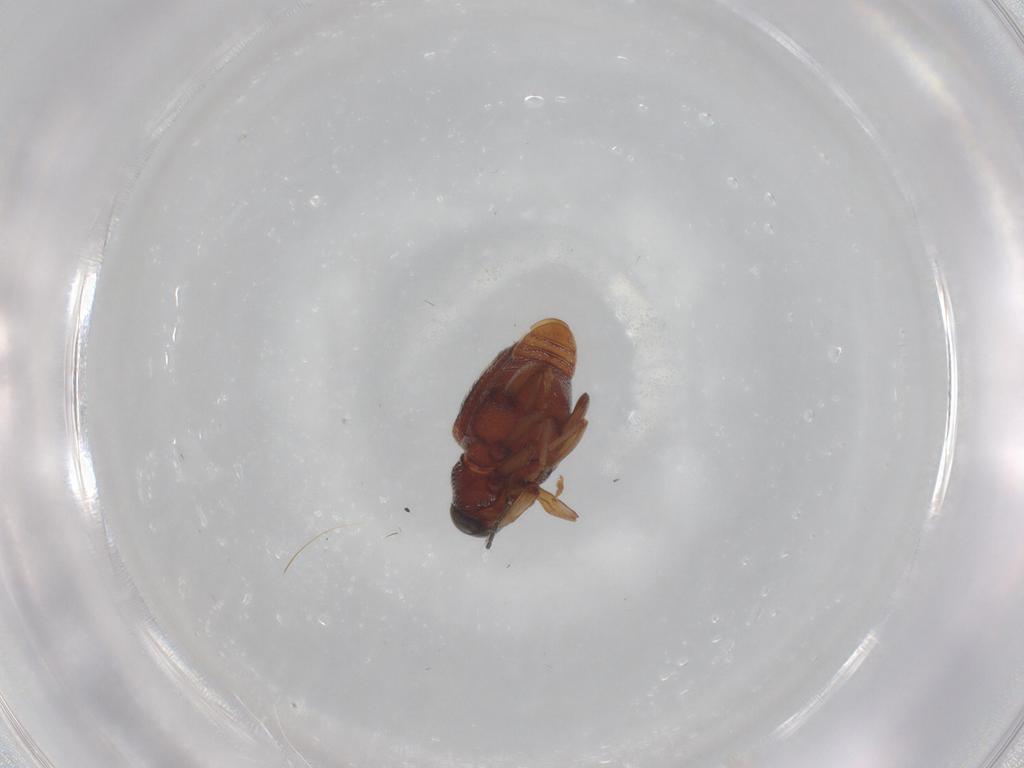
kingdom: Animalia
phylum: Arthropoda
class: Insecta
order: Coleoptera
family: Curculionidae
